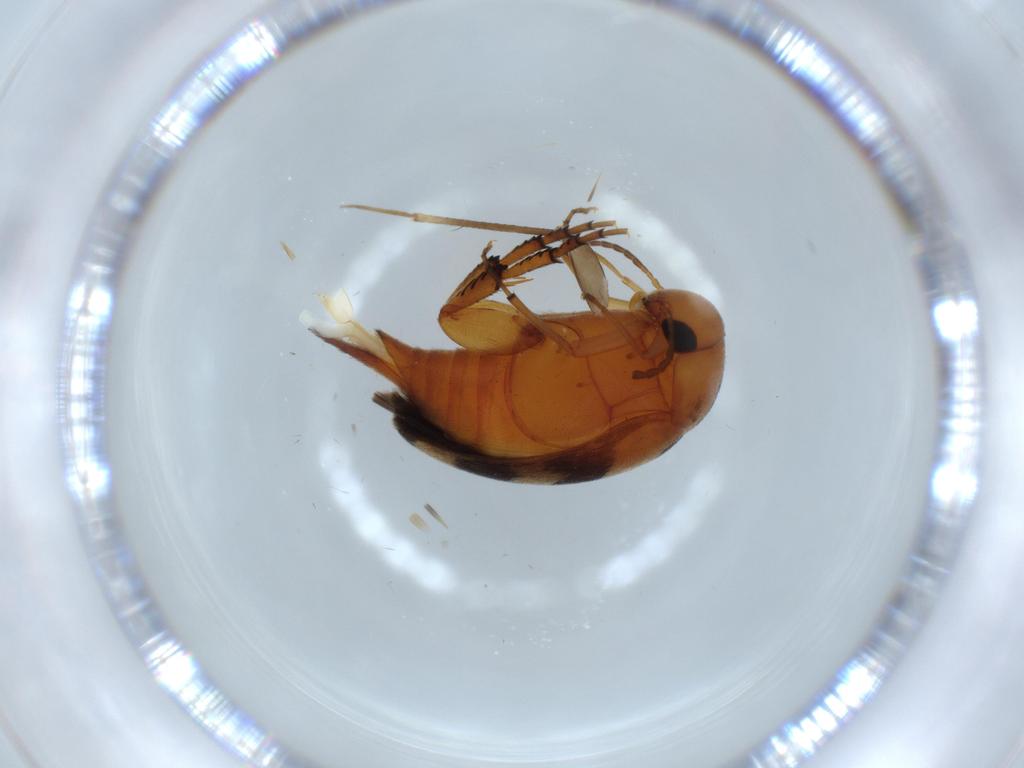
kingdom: Animalia
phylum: Arthropoda
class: Insecta
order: Coleoptera
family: Mordellidae
